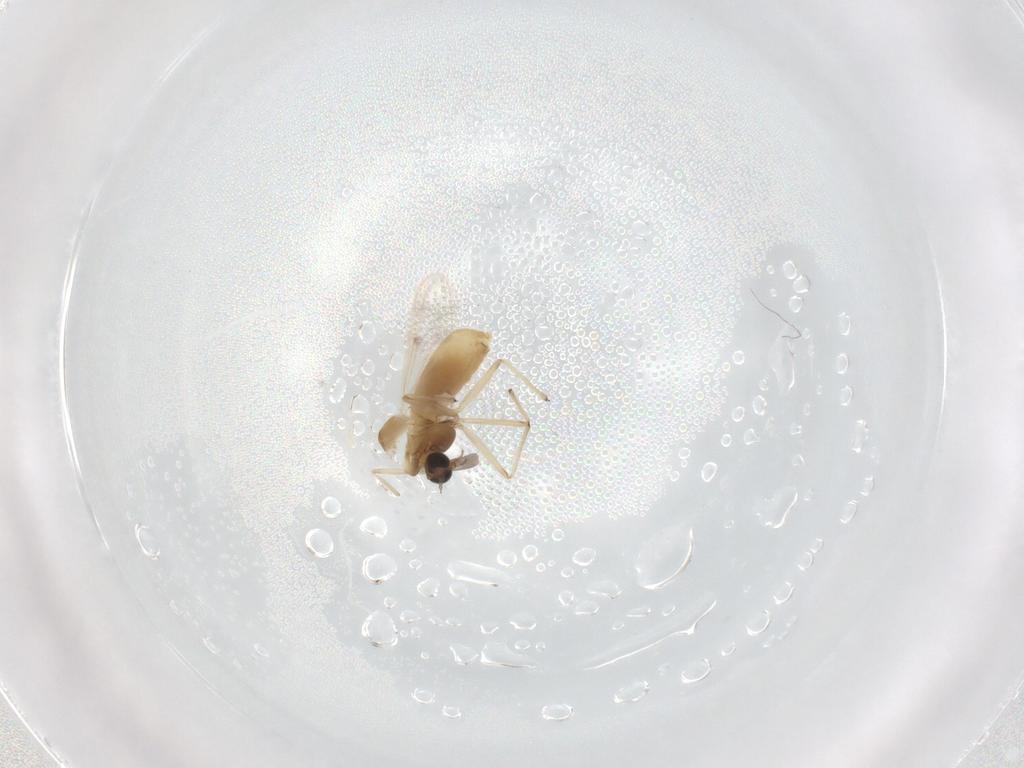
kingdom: Animalia
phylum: Arthropoda
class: Insecta
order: Diptera
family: Chironomidae
